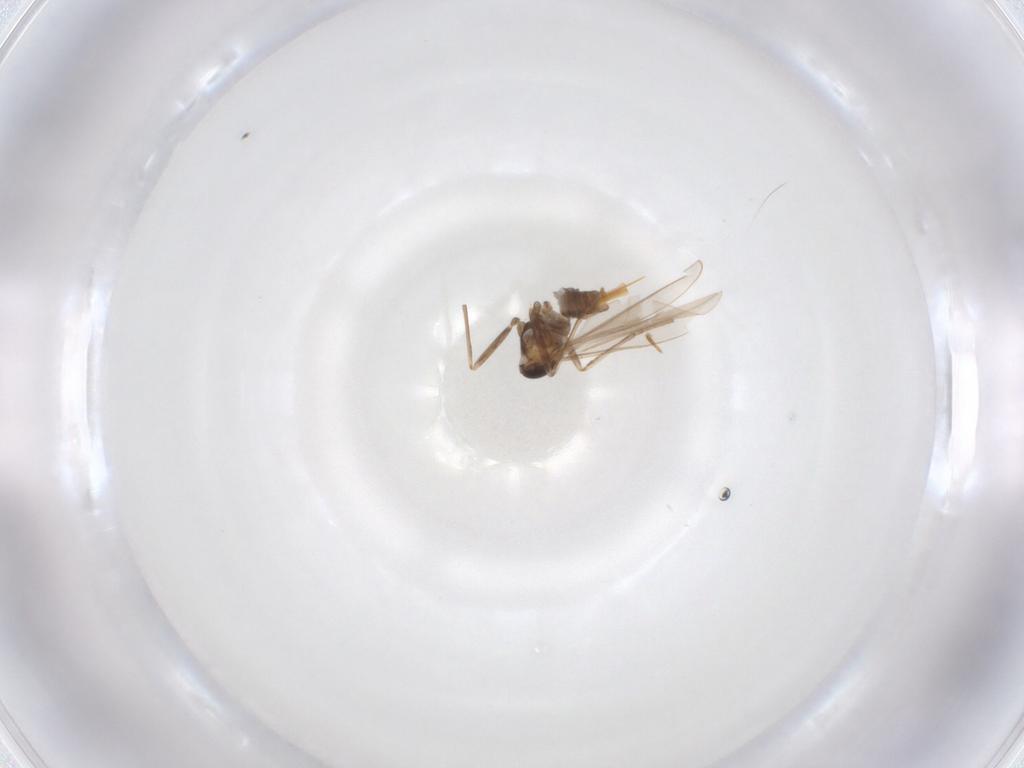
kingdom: Animalia
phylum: Arthropoda
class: Insecta
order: Diptera
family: Cecidomyiidae
